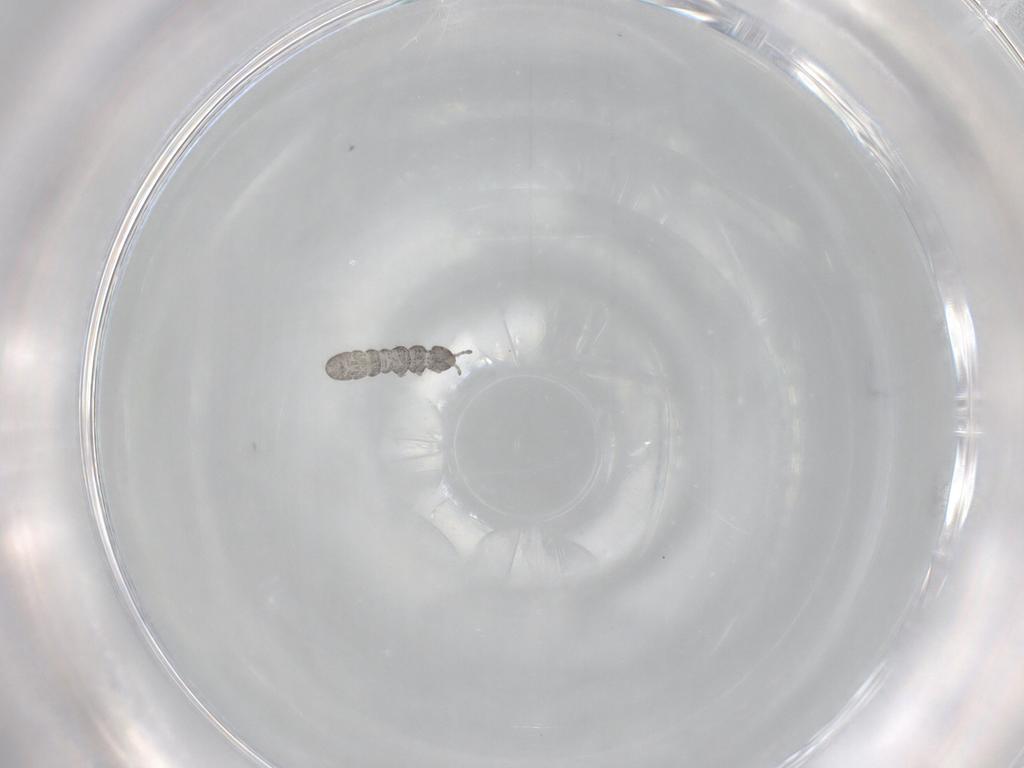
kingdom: Animalia
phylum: Arthropoda
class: Collembola
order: Entomobryomorpha
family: Isotomidae
